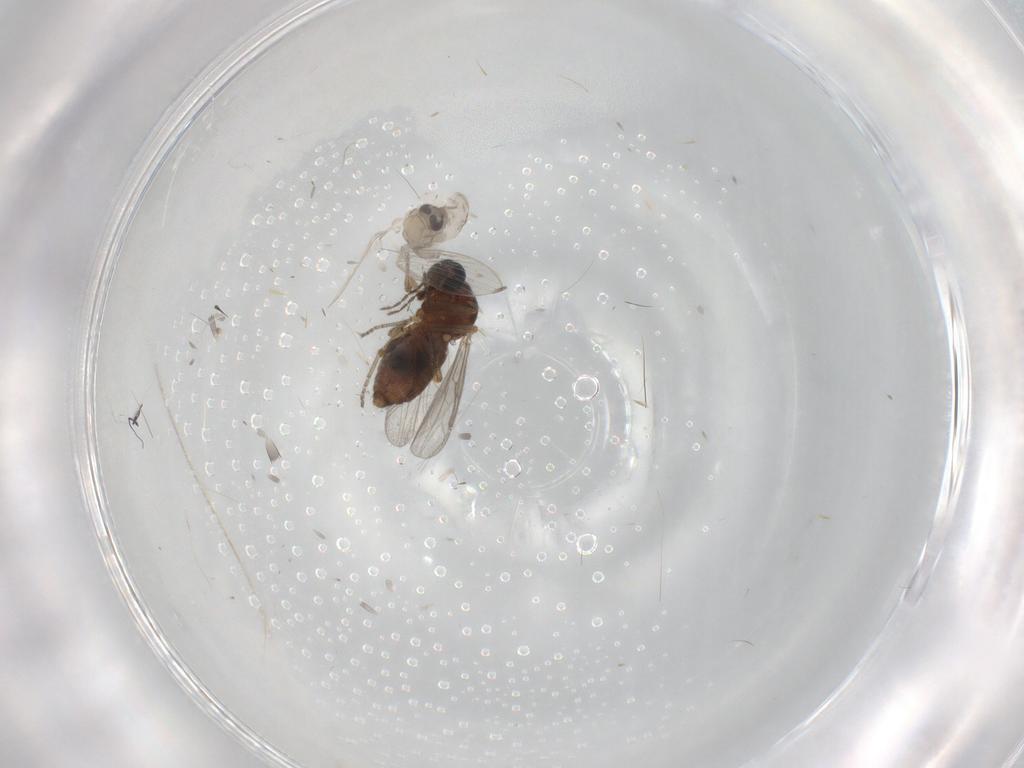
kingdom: Animalia
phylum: Arthropoda
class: Insecta
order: Diptera
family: Psychodidae
